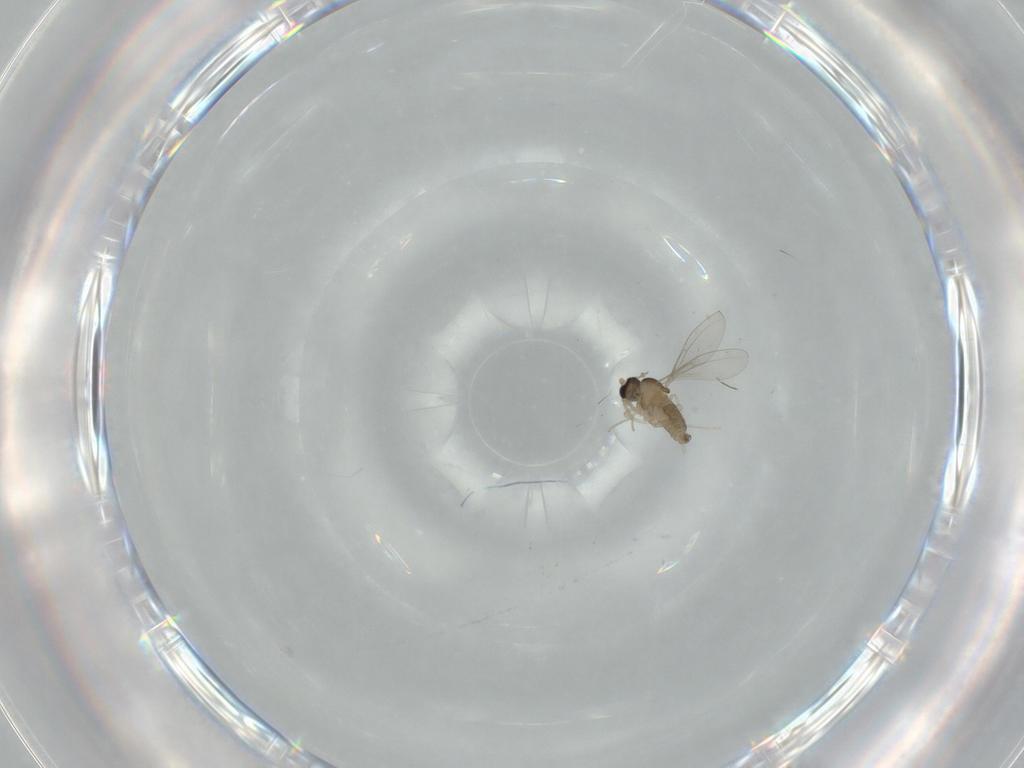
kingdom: Animalia
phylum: Arthropoda
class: Insecta
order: Diptera
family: Cecidomyiidae
